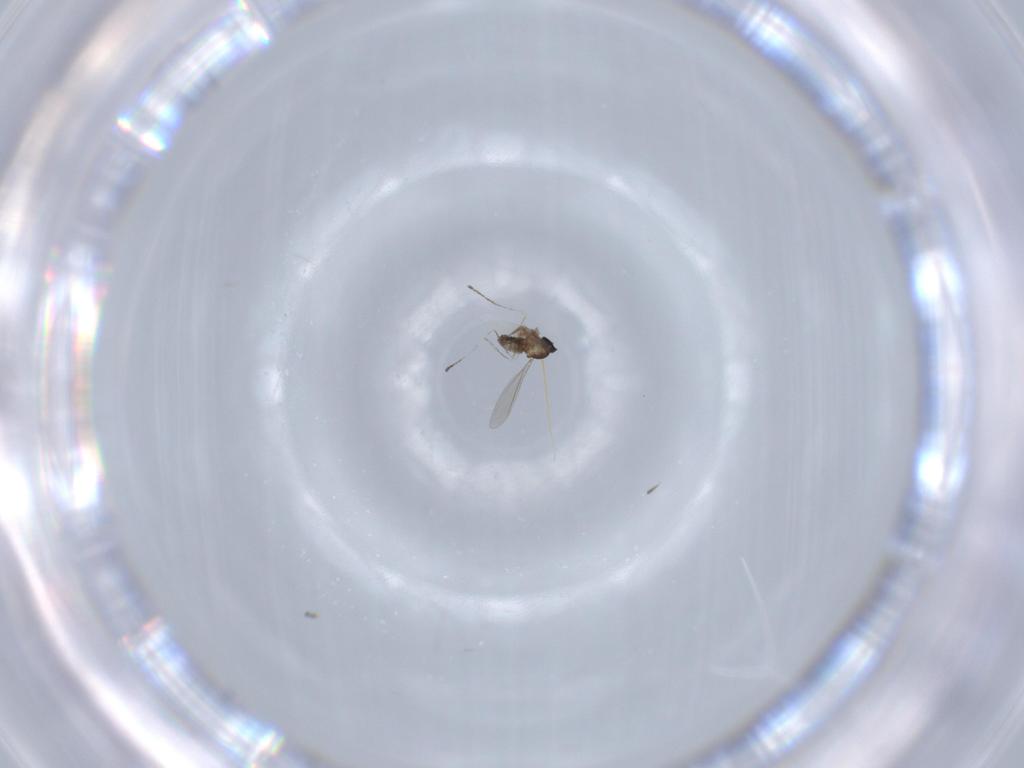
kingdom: Animalia
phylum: Arthropoda
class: Insecta
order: Diptera
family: Cecidomyiidae
